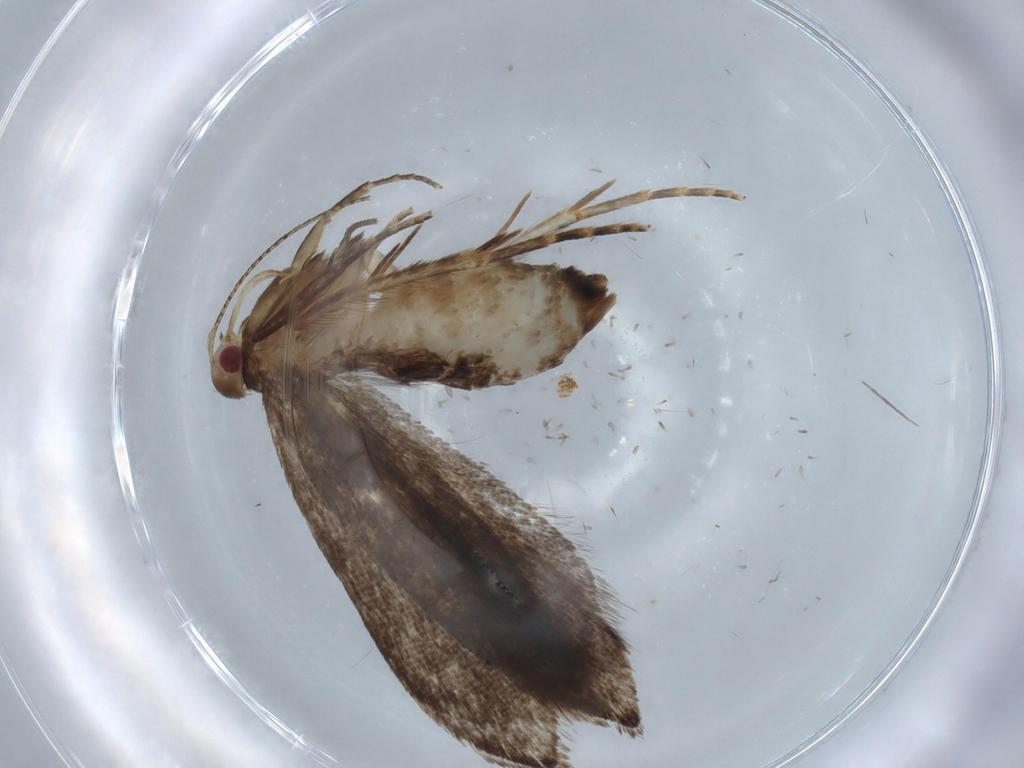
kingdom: Animalia
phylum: Arthropoda
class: Insecta
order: Lepidoptera
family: Gelechiidae
